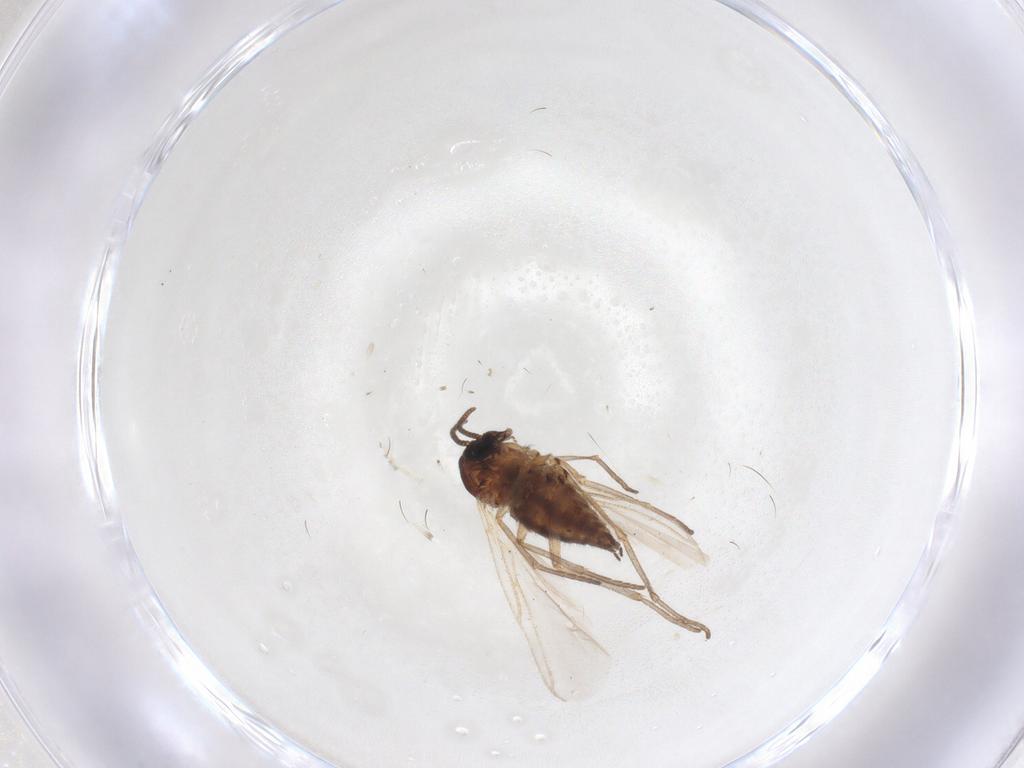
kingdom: Animalia
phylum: Arthropoda
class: Insecta
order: Diptera
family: Sciaridae
